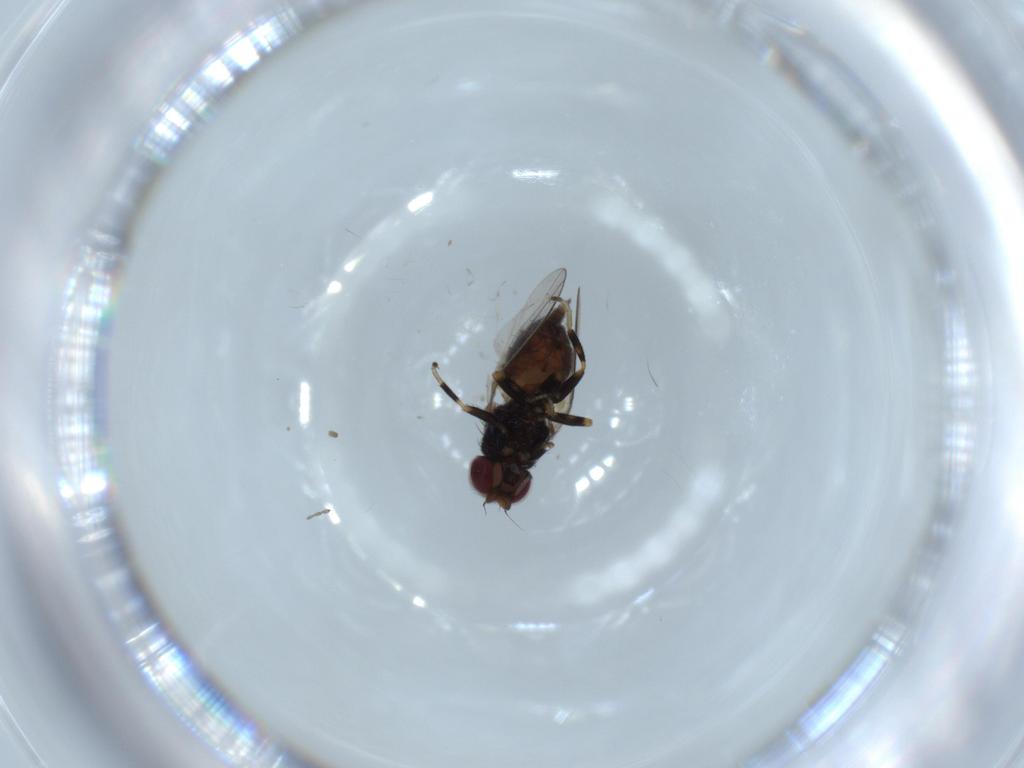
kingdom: Animalia
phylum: Arthropoda
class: Insecta
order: Diptera
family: Chloropidae
